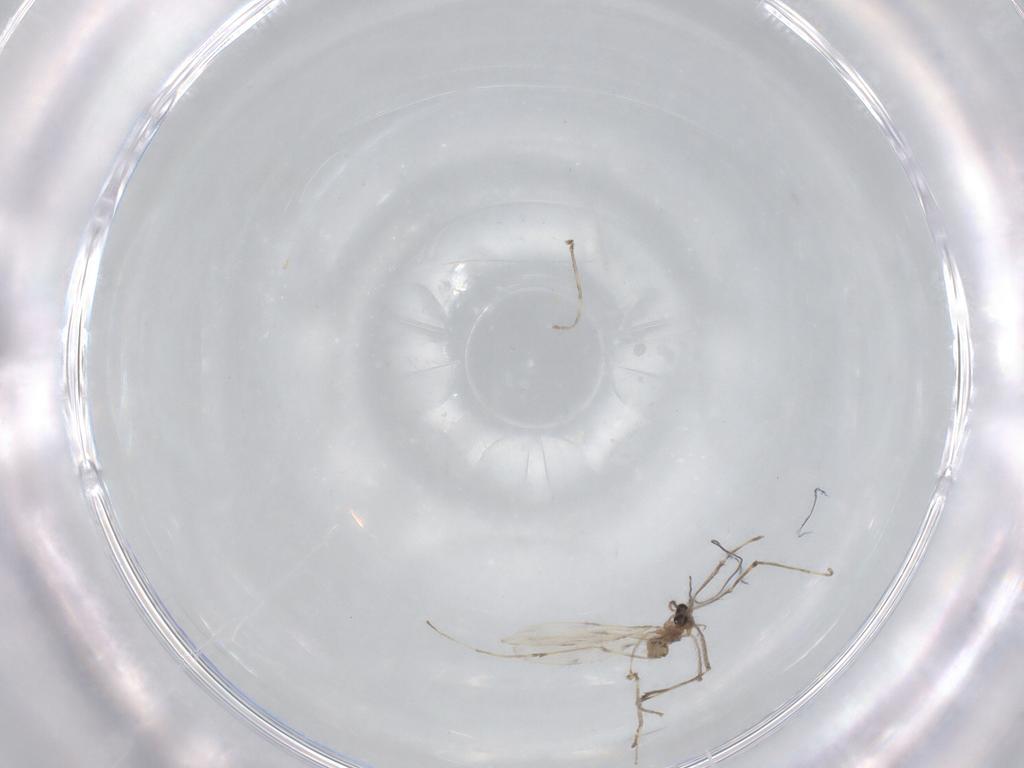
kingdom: Animalia
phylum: Arthropoda
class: Insecta
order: Diptera
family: Cecidomyiidae
